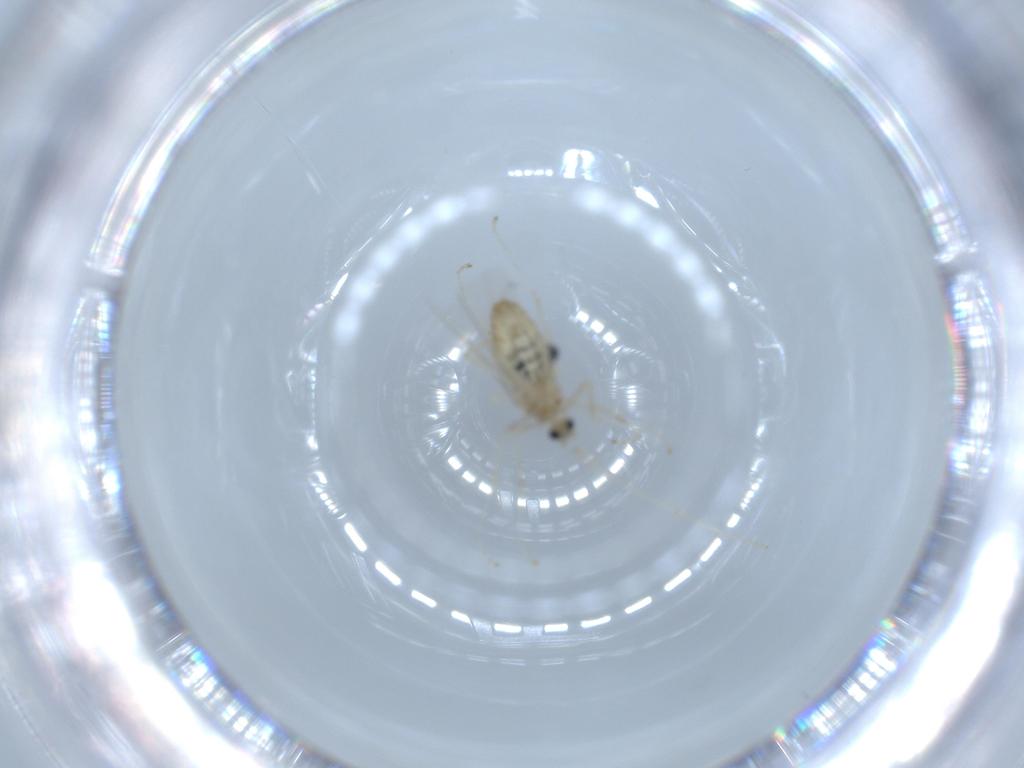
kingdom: Animalia
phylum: Arthropoda
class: Insecta
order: Diptera
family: Cecidomyiidae
